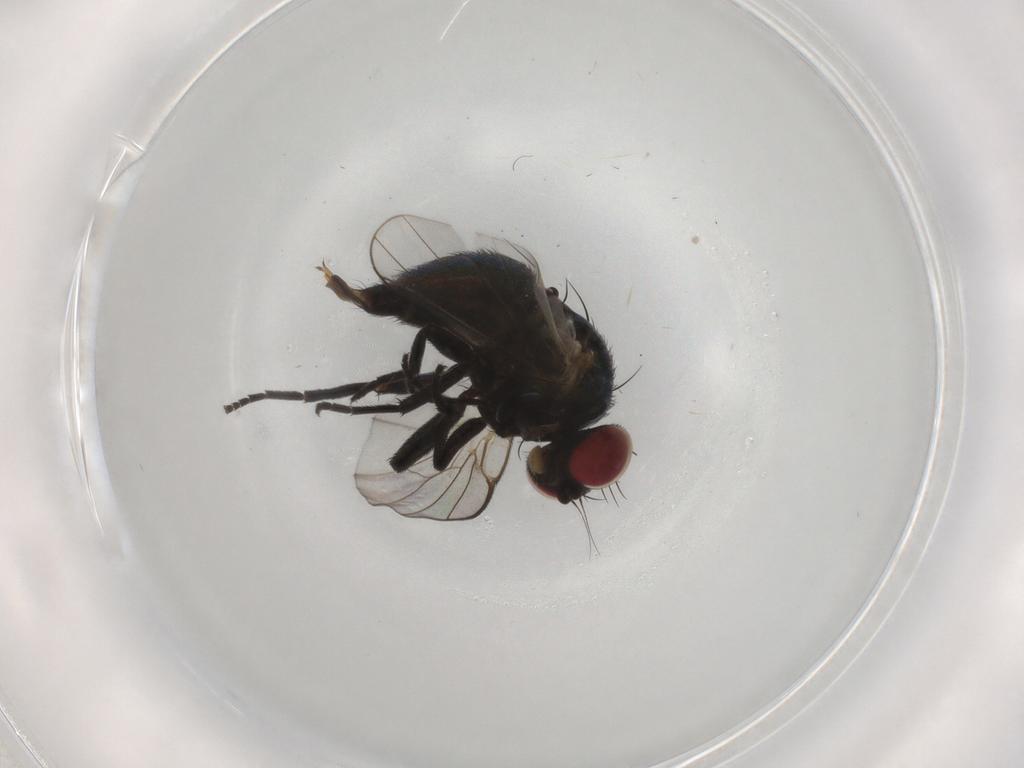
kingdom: Animalia
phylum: Arthropoda
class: Insecta
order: Diptera
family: Agromyzidae
